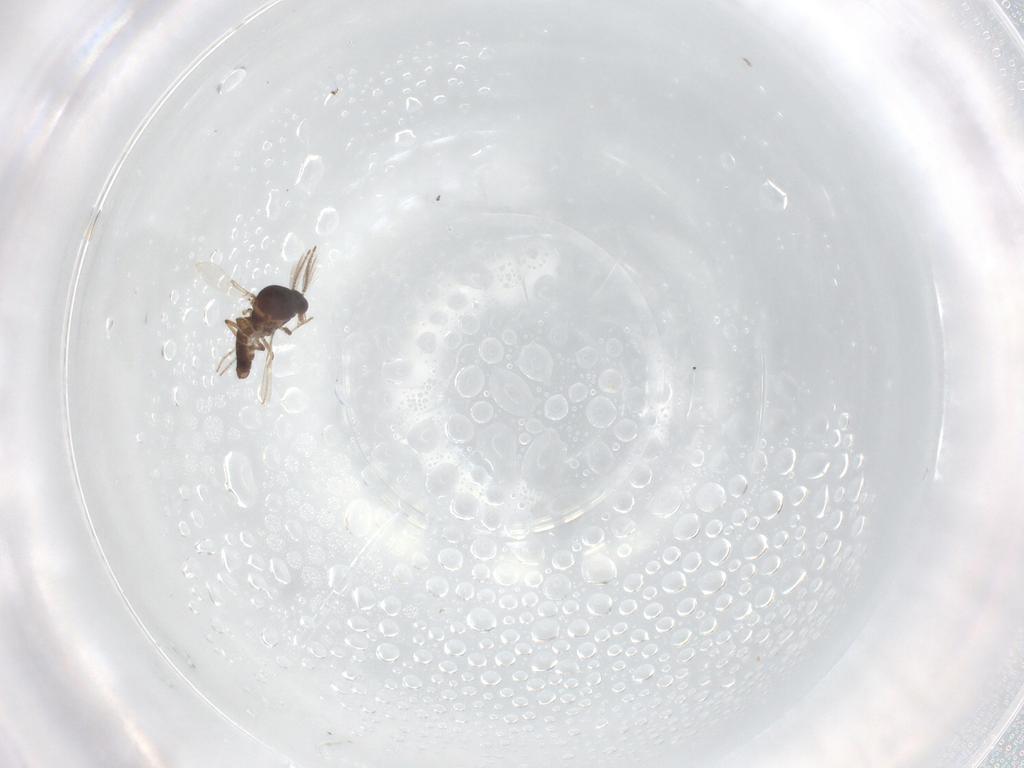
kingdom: Animalia
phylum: Arthropoda
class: Insecta
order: Diptera
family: Ceratopogonidae
